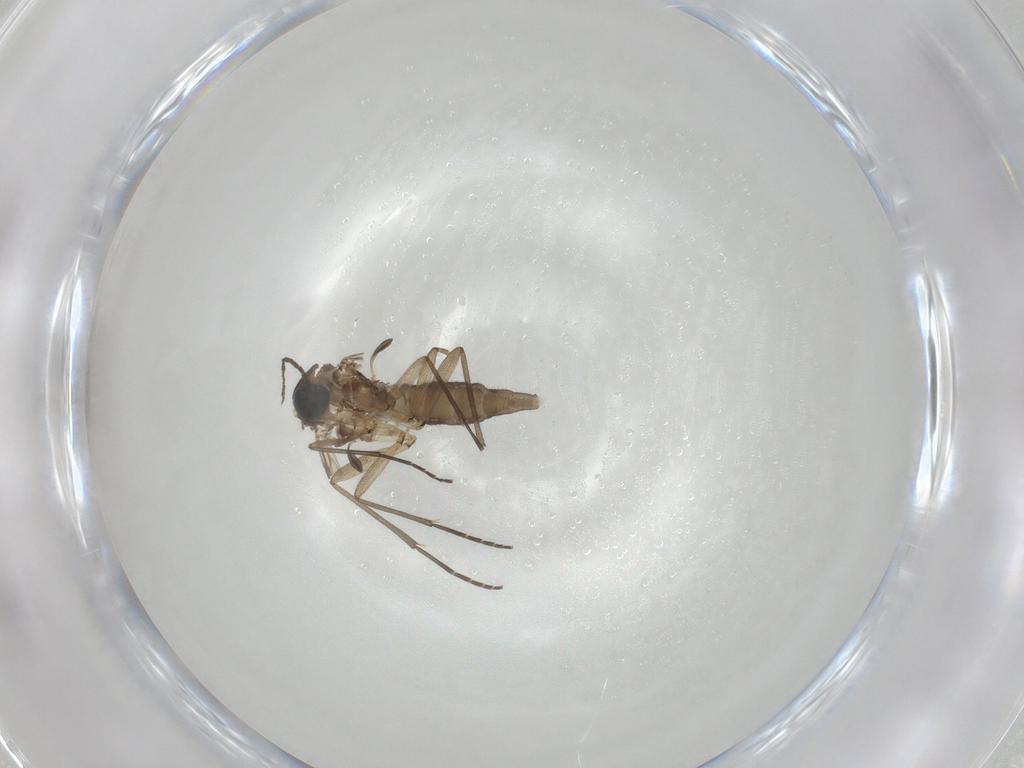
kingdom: Animalia
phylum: Arthropoda
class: Insecta
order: Diptera
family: Sciaridae
